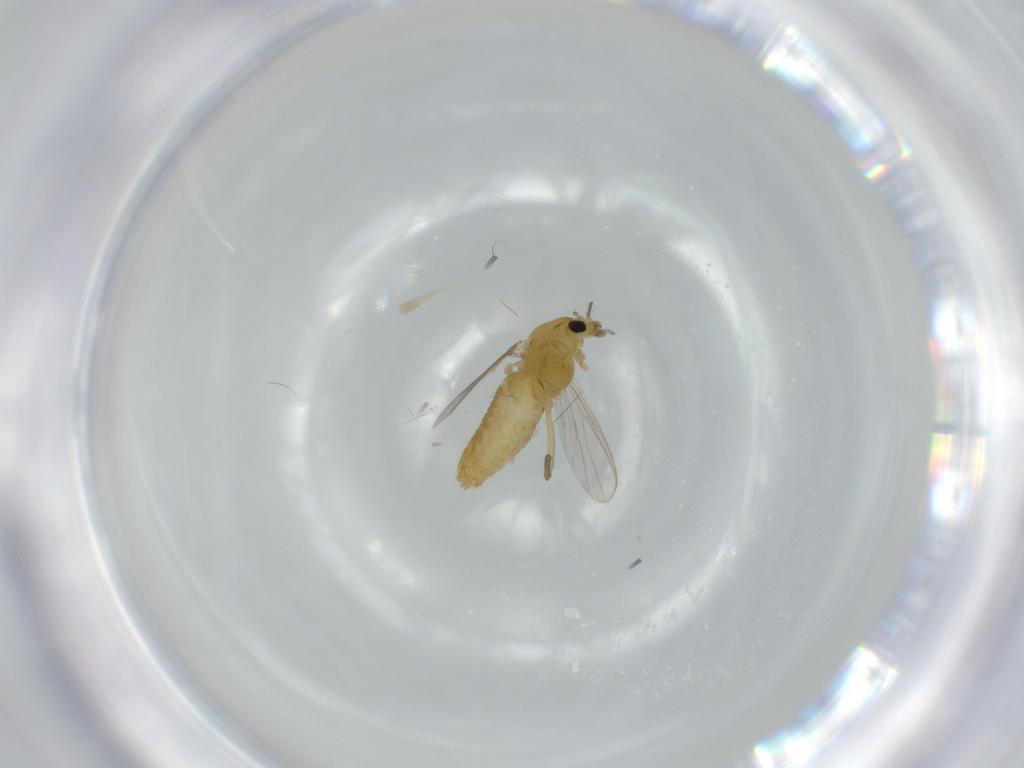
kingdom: Animalia
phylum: Arthropoda
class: Insecta
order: Diptera
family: Chironomidae
